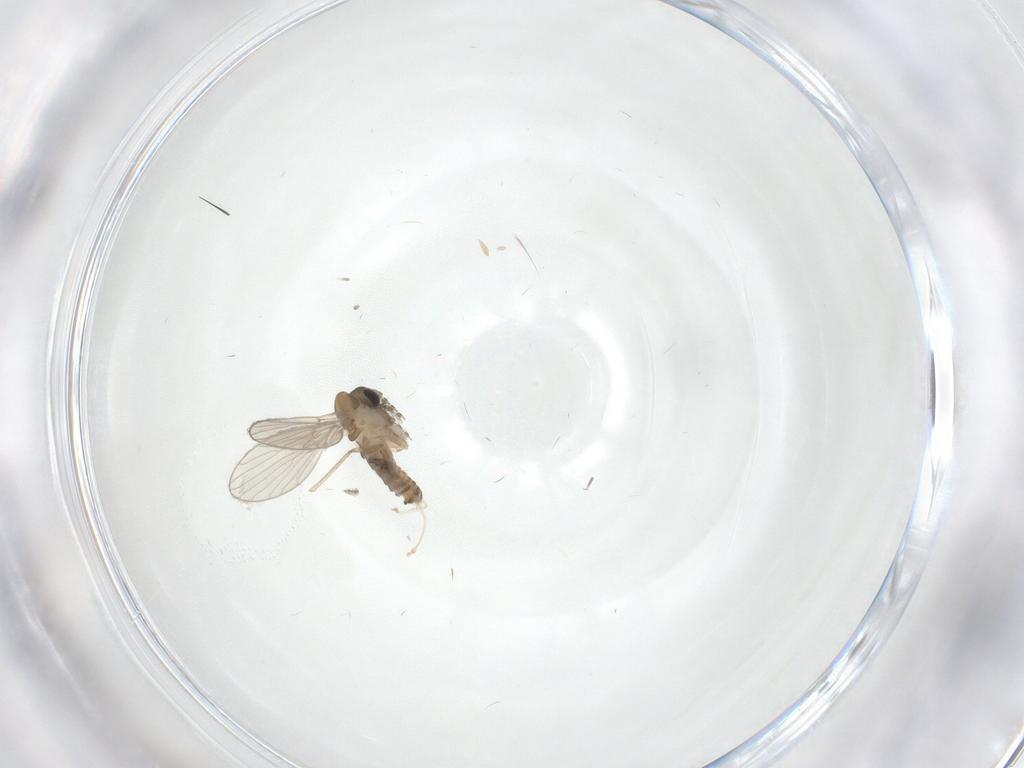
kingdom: Animalia
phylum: Arthropoda
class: Insecta
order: Diptera
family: Psychodidae
